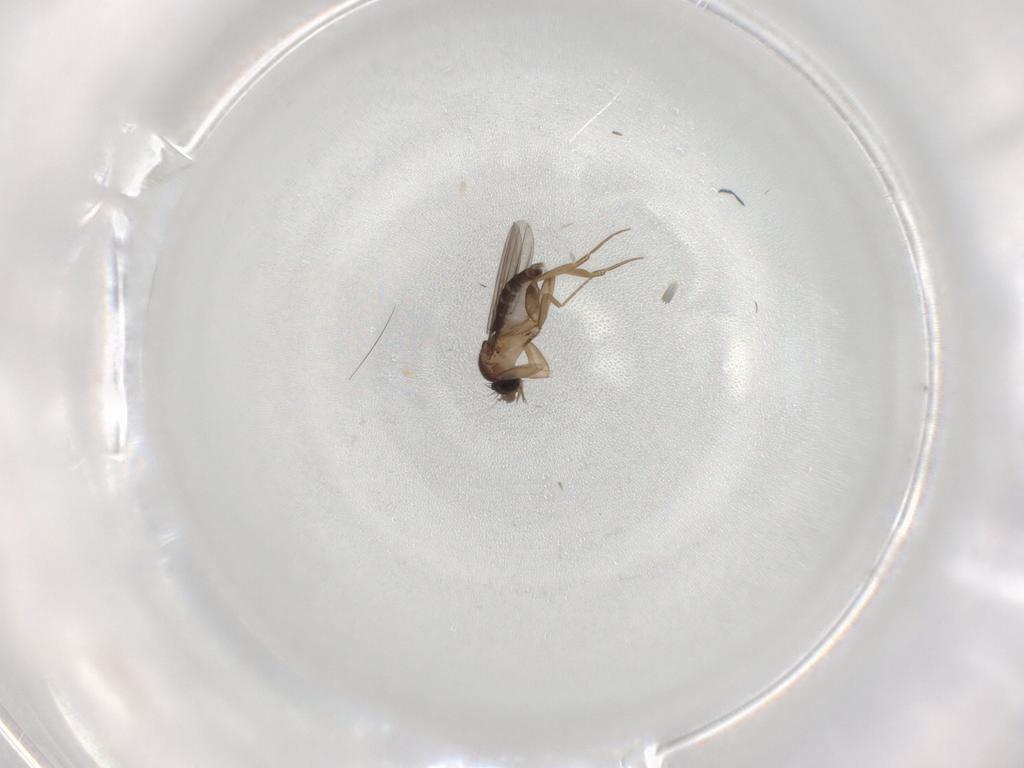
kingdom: Animalia
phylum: Arthropoda
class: Insecta
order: Diptera
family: Phoridae
